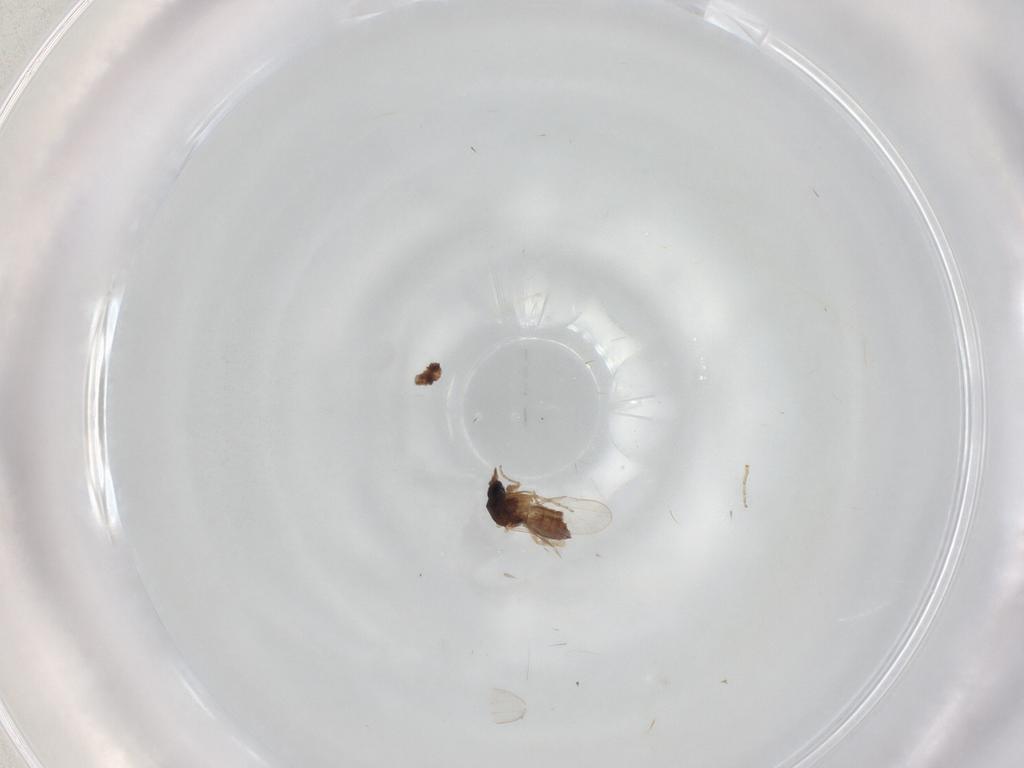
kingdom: Animalia
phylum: Arthropoda
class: Insecta
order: Diptera
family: Ceratopogonidae
